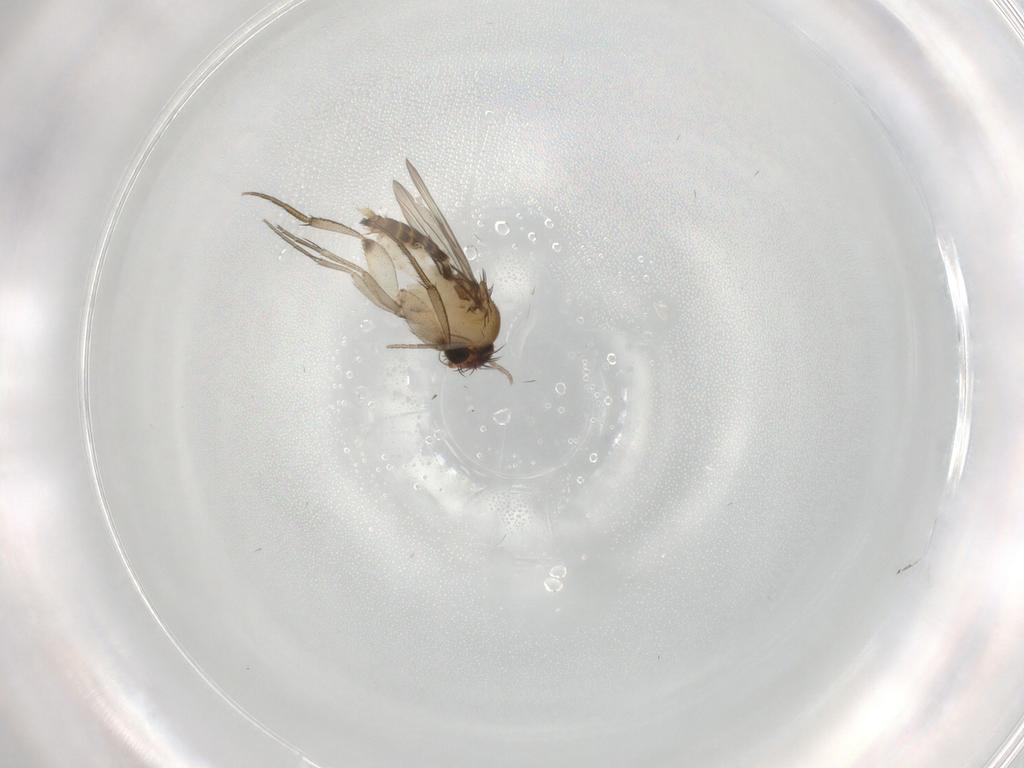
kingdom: Animalia
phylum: Arthropoda
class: Insecta
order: Diptera
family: Phoridae
